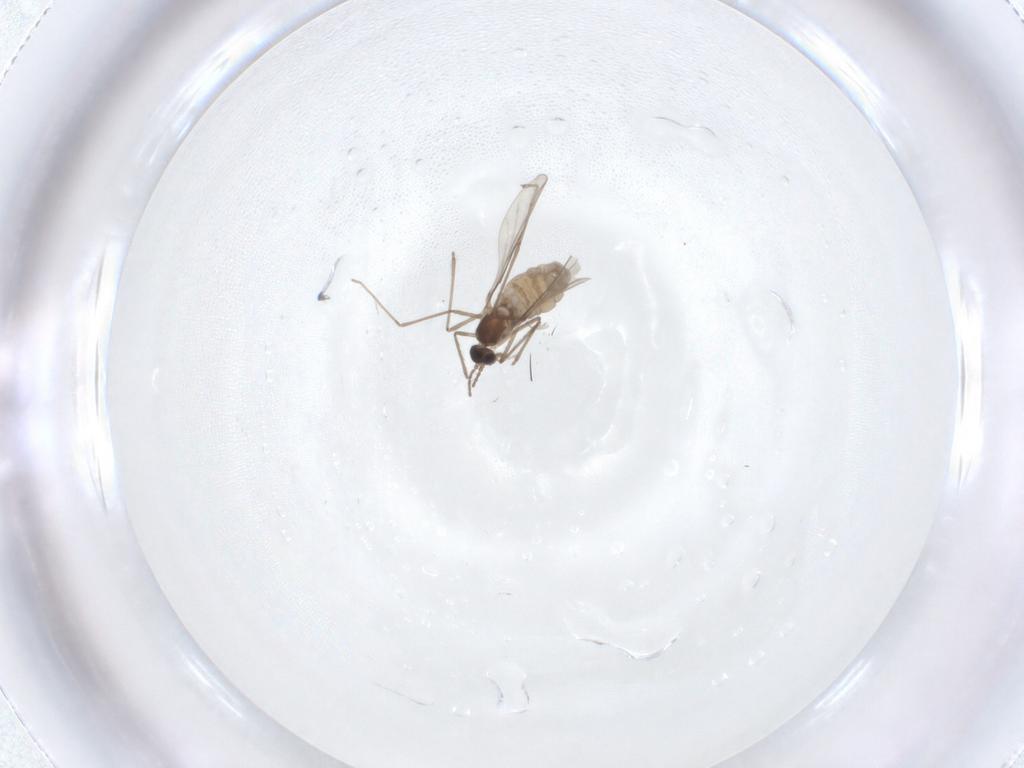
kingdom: Animalia
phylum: Arthropoda
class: Insecta
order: Diptera
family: Cecidomyiidae
